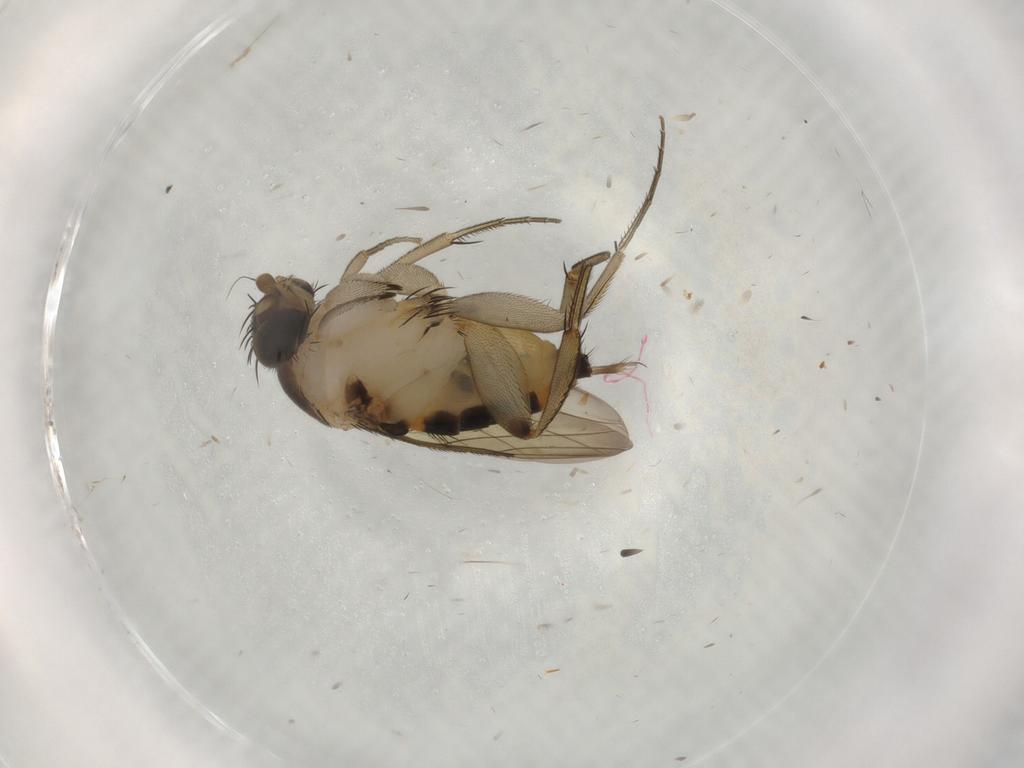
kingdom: Animalia
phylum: Arthropoda
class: Insecta
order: Diptera
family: Phoridae
